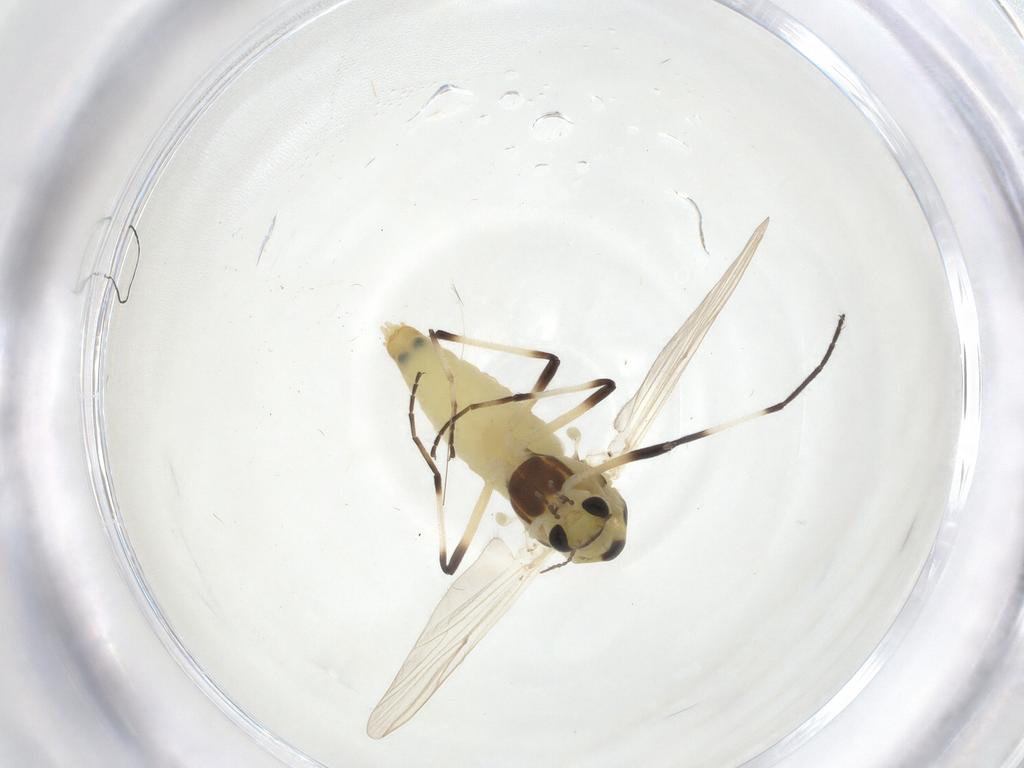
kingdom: Animalia
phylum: Arthropoda
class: Insecta
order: Diptera
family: Chironomidae
